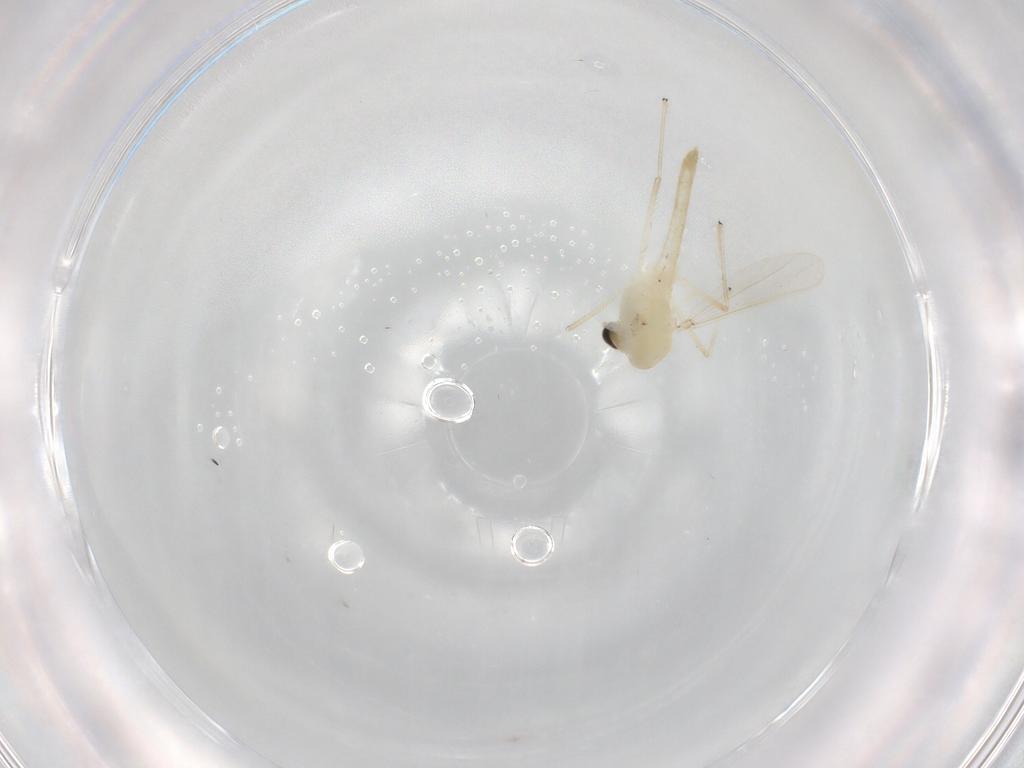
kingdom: Animalia
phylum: Arthropoda
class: Insecta
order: Diptera
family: Chironomidae
